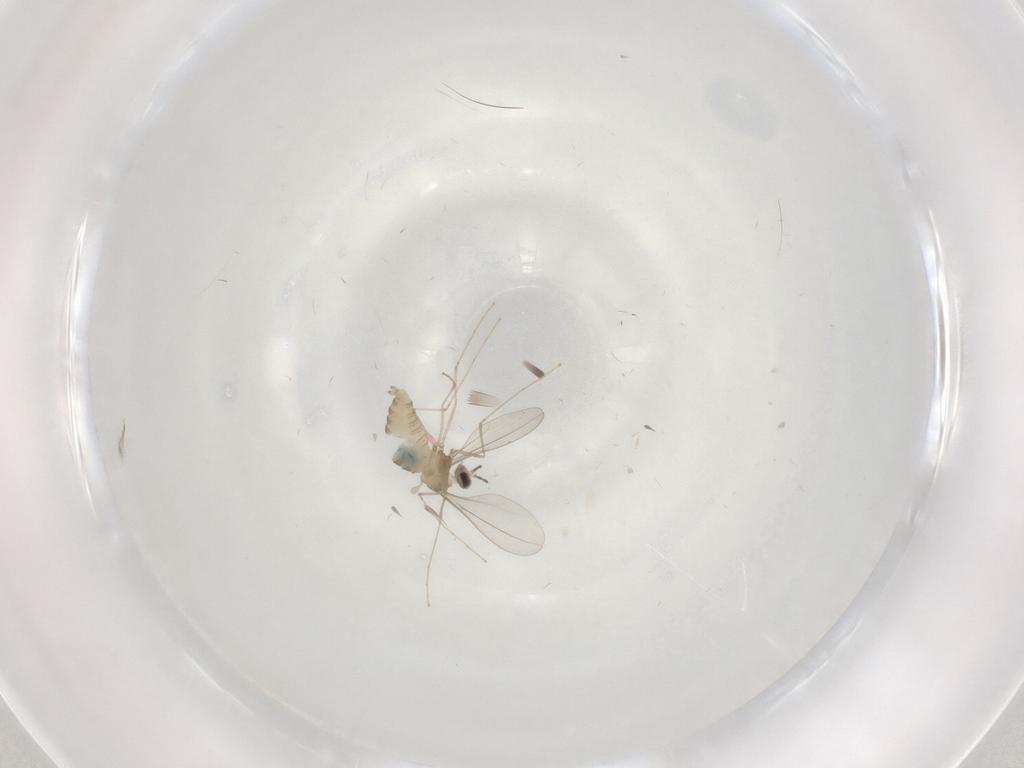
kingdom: Animalia
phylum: Arthropoda
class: Insecta
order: Diptera
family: Cecidomyiidae
